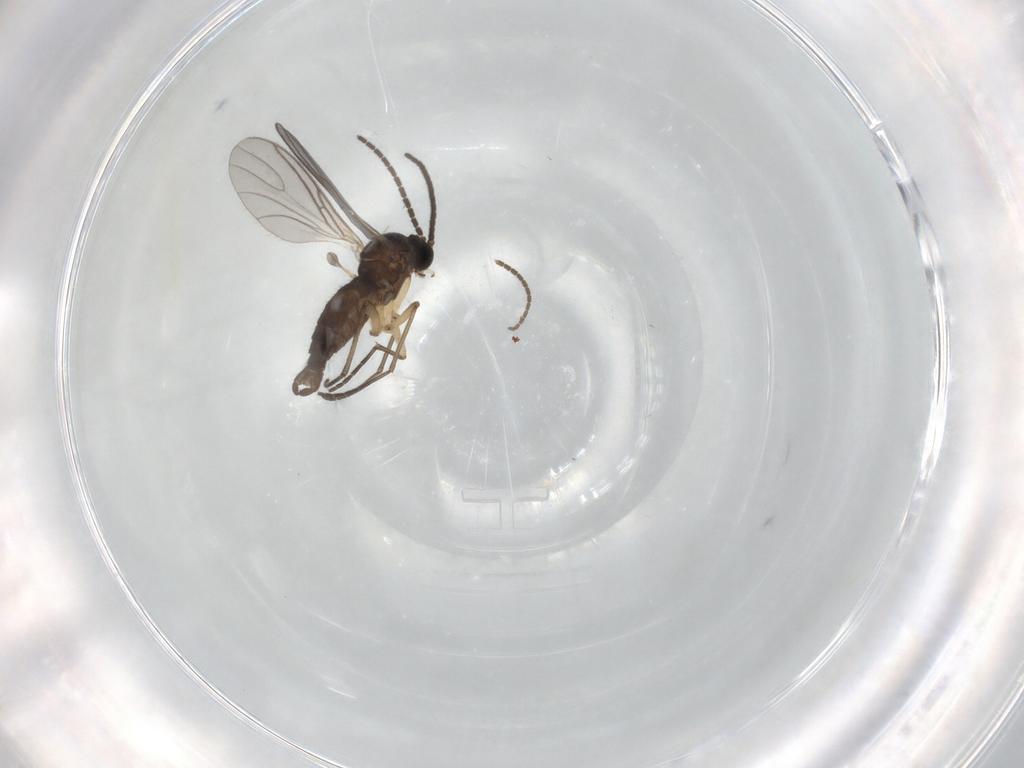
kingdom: Animalia
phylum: Arthropoda
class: Insecta
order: Diptera
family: Sciaridae
